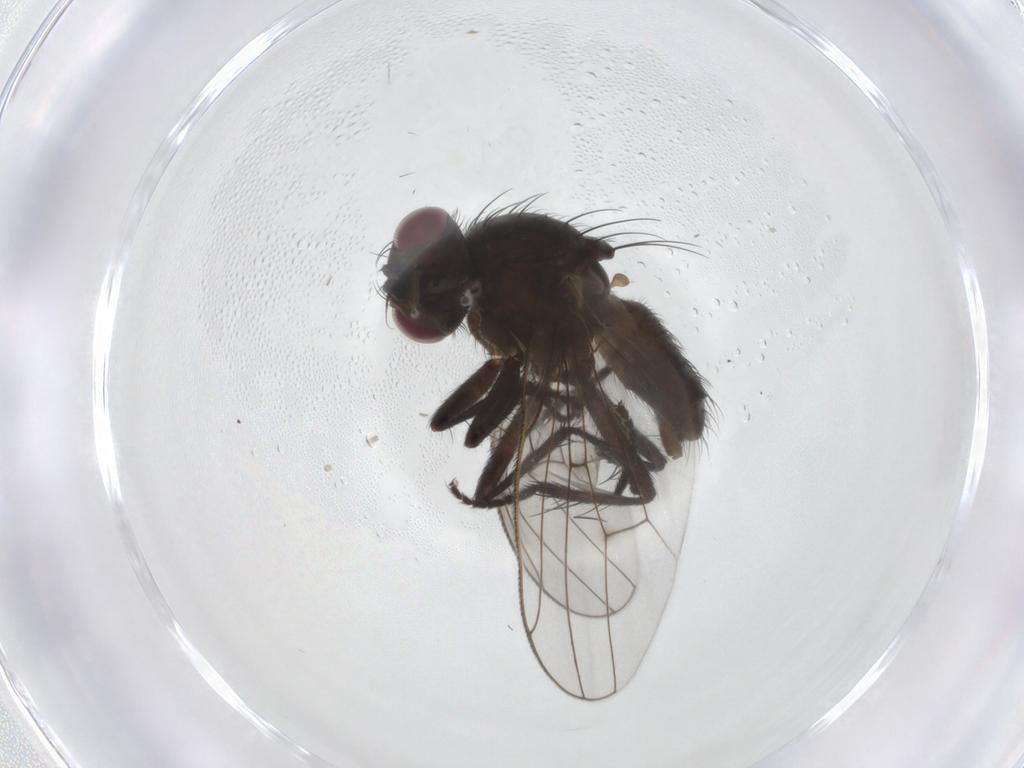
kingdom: Animalia
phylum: Arthropoda
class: Insecta
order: Diptera
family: Muscidae
